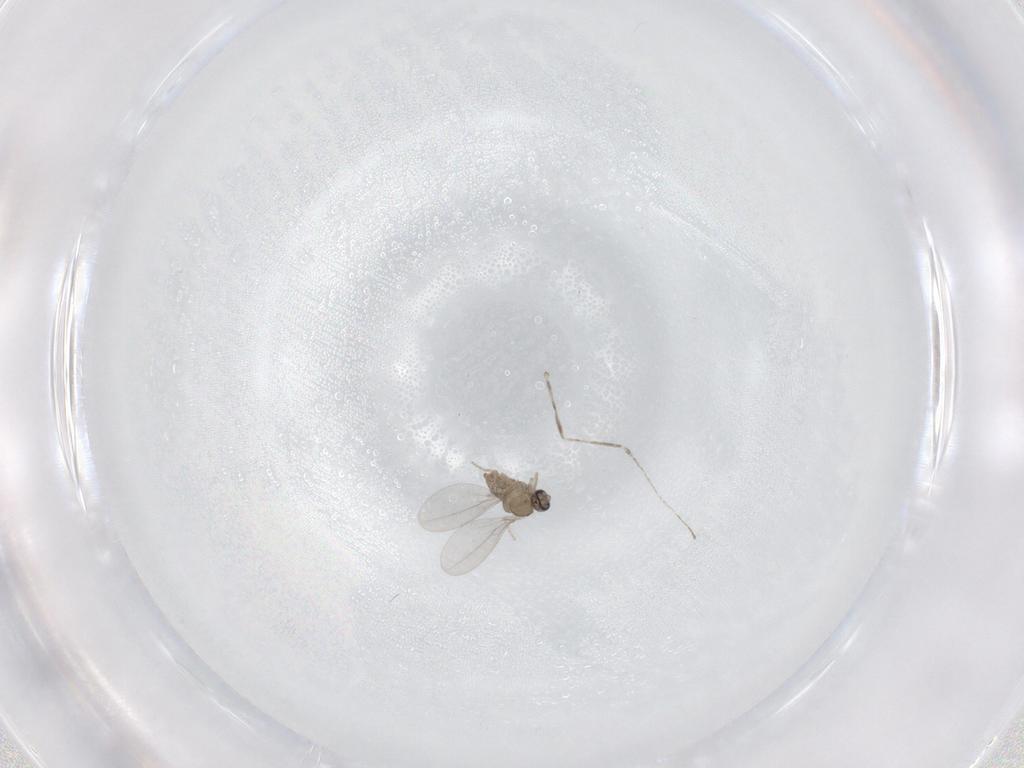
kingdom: Animalia
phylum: Arthropoda
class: Insecta
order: Diptera
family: Cecidomyiidae
